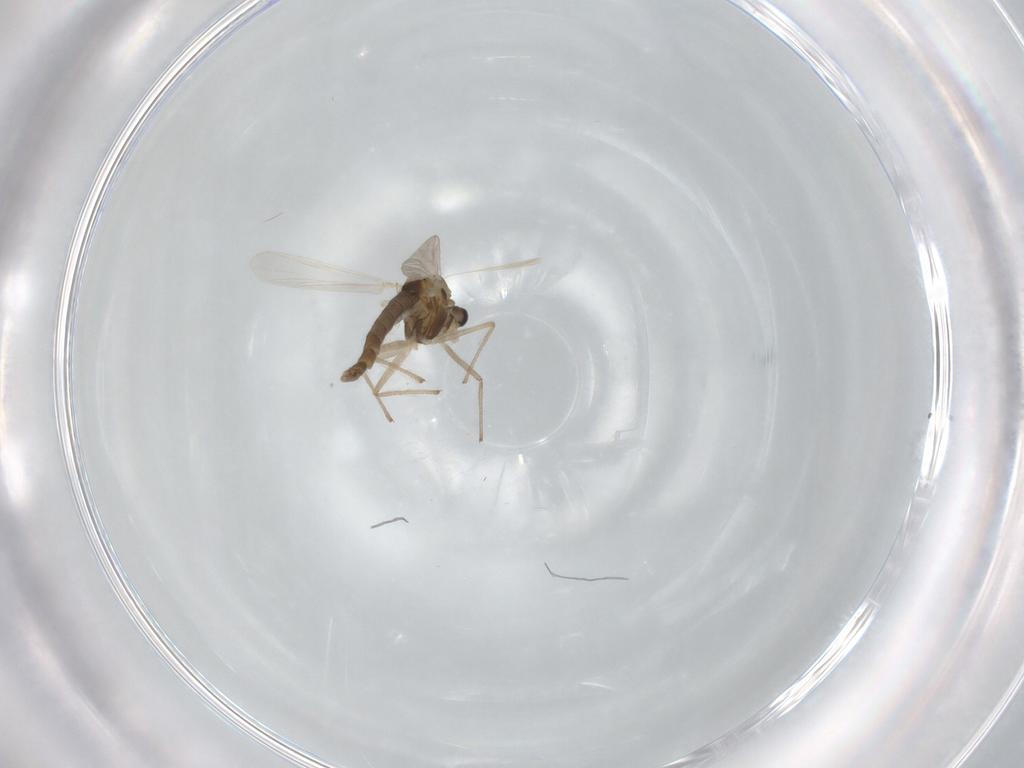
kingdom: Animalia
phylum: Arthropoda
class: Insecta
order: Diptera
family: Chironomidae
